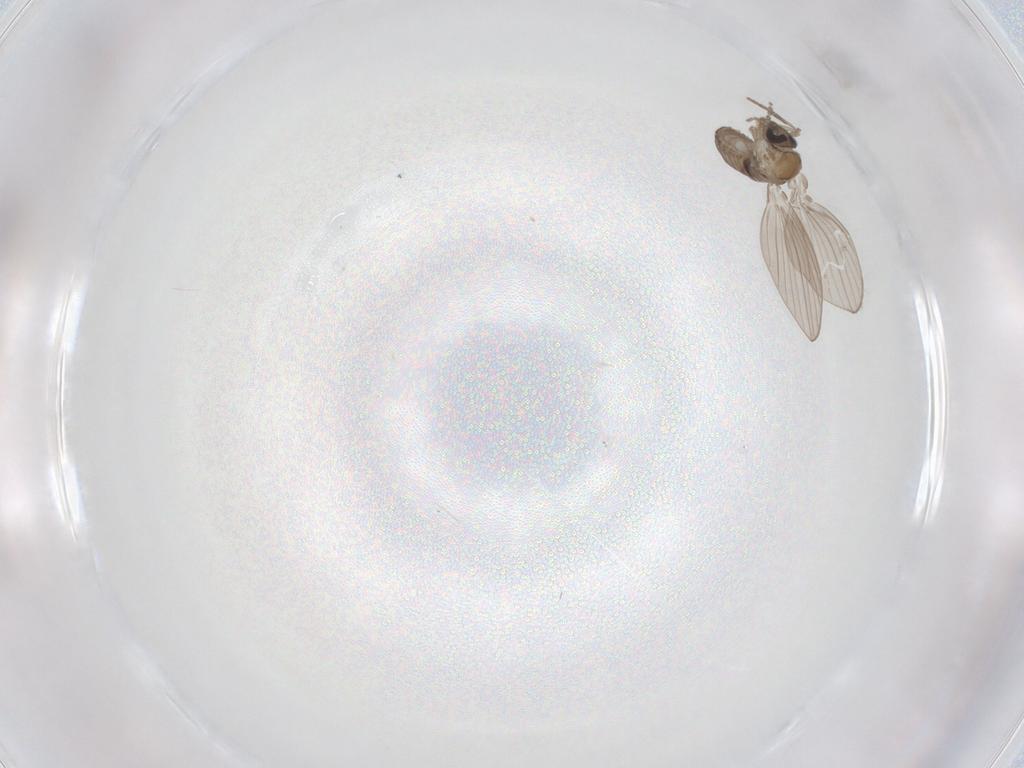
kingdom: Animalia
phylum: Arthropoda
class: Insecta
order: Diptera
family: Psychodidae
